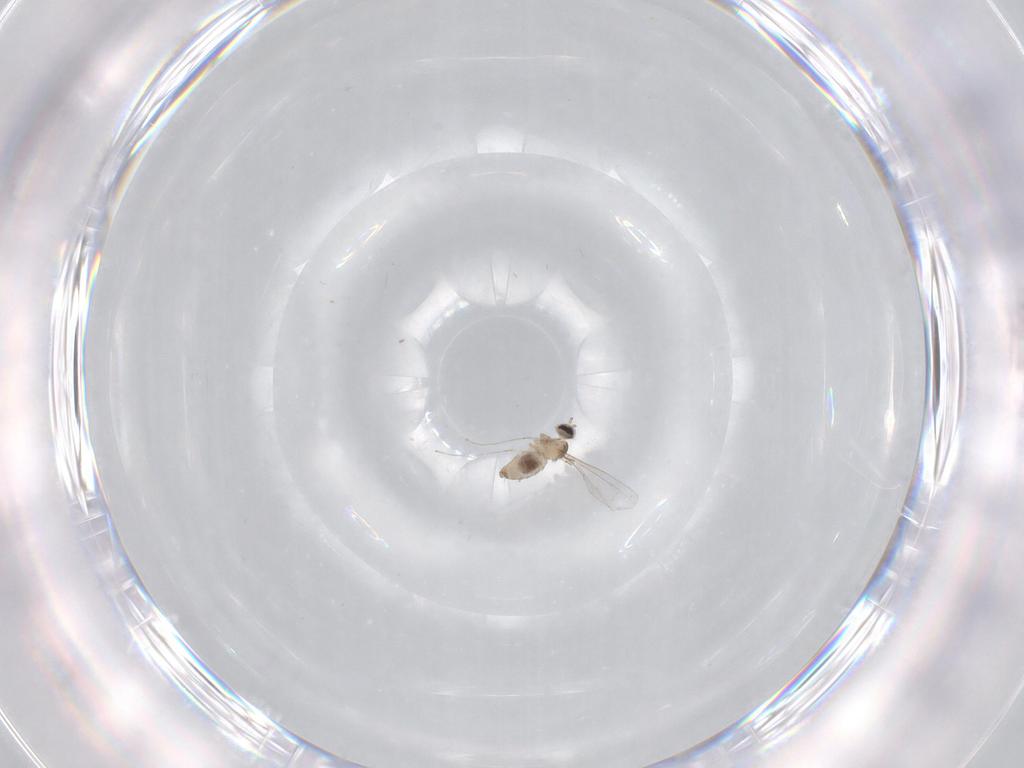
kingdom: Animalia
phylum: Arthropoda
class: Insecta
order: Diptera
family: Cecidomyiidae
